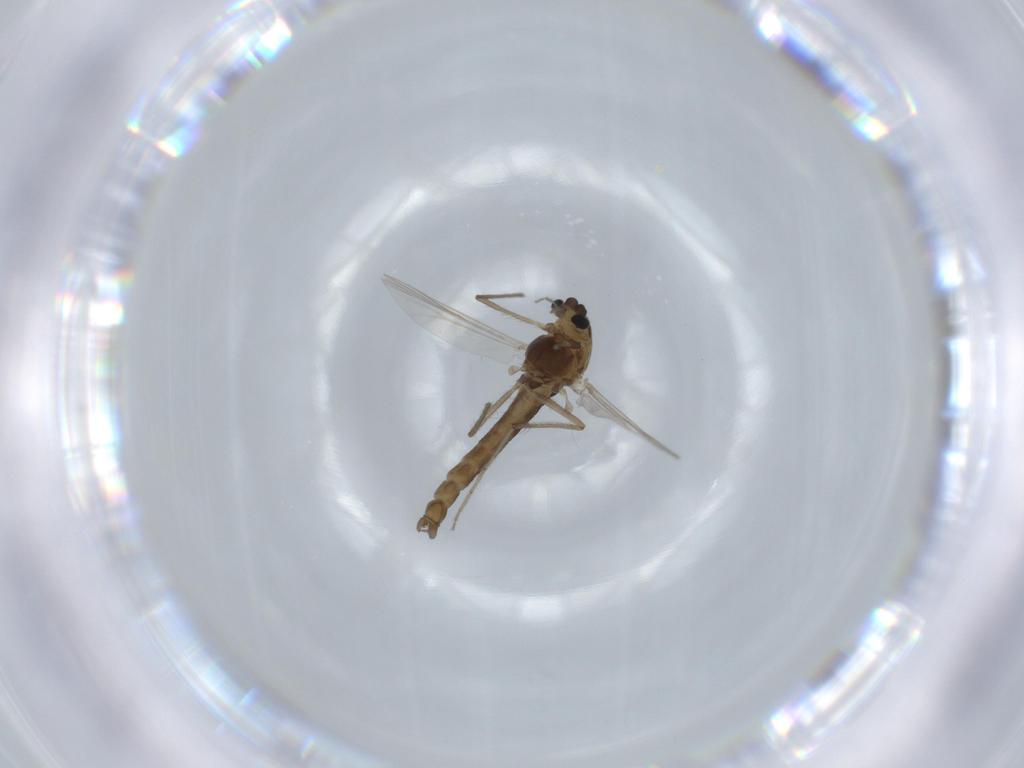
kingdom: Animalia
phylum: Arthropoda
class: Insecta
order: Diptera
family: Chironomidae
